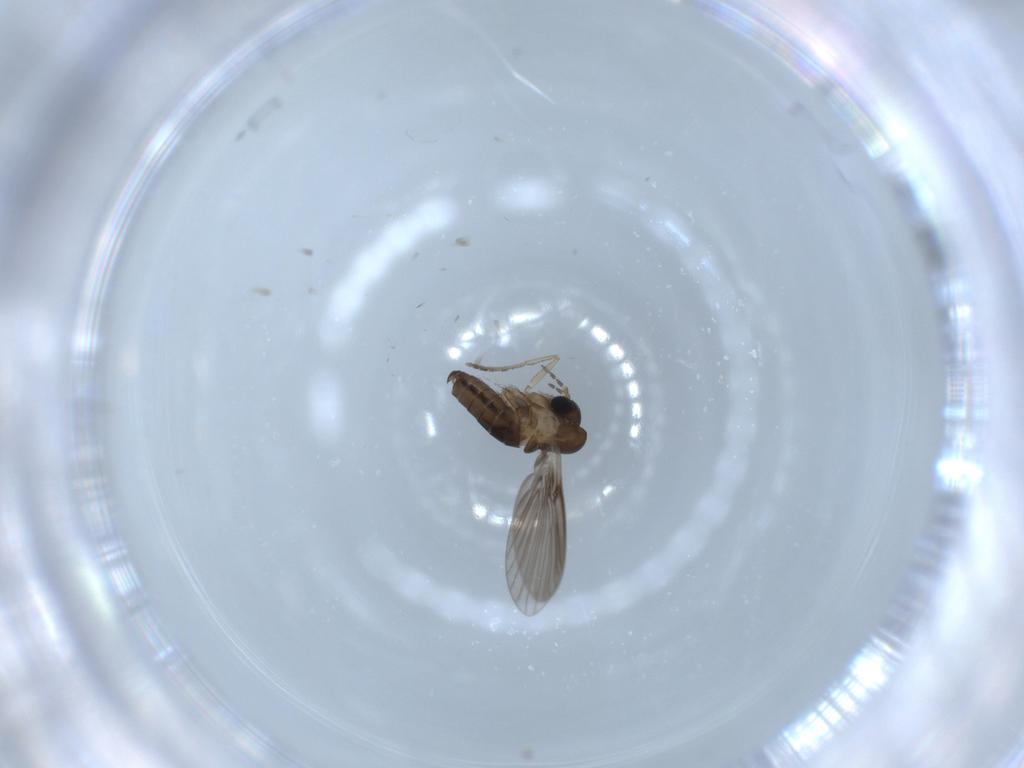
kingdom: Animalia
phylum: Arthropoda
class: Insecta
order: Diptera
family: Psychodidae
